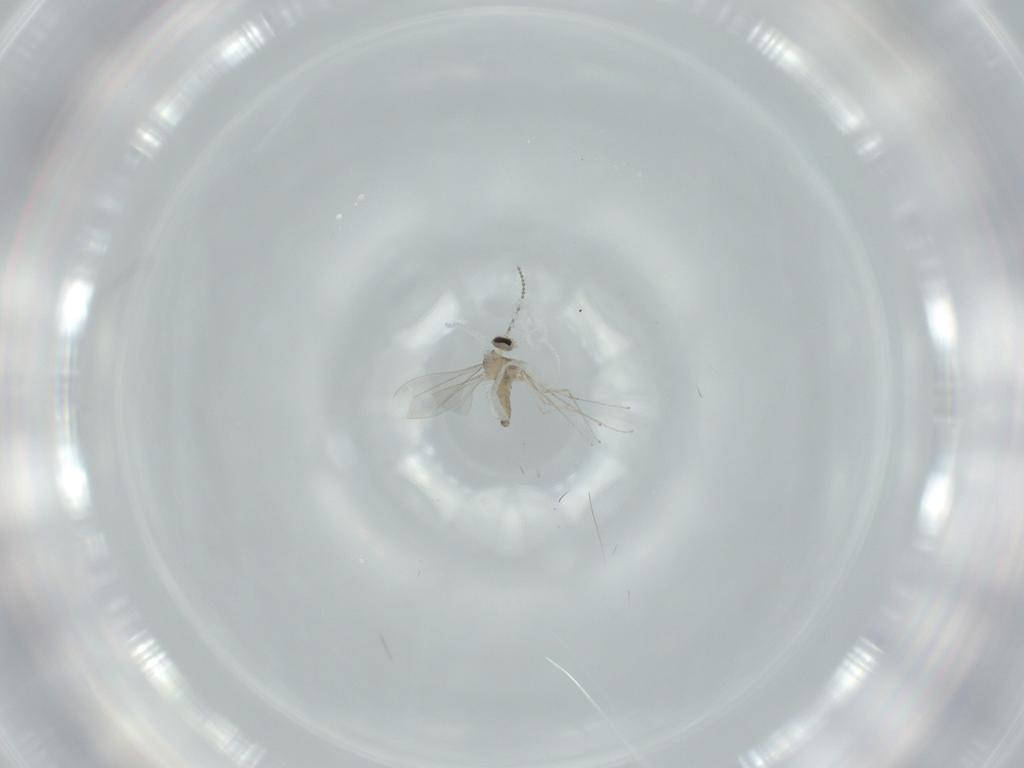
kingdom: Animalia
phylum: Arthropoda
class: Insecta
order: Diptera
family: Cecidomyiidae
